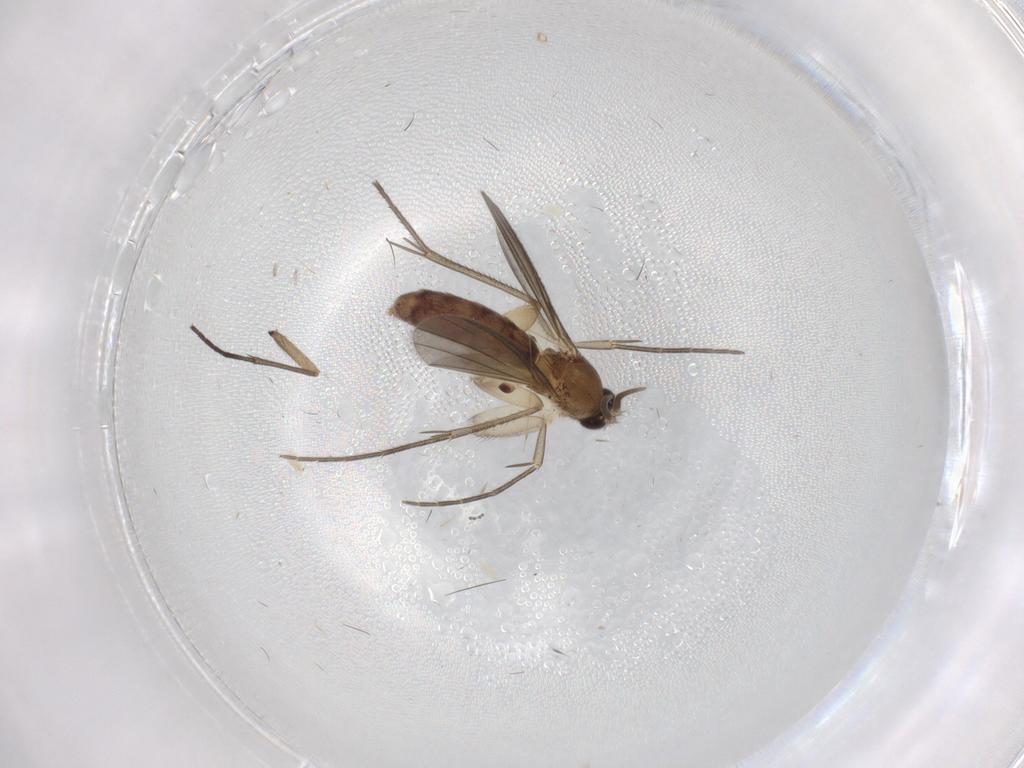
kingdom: Animalia
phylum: Arthropoda
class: Insecta
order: Diptera
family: Mycetophilidae
